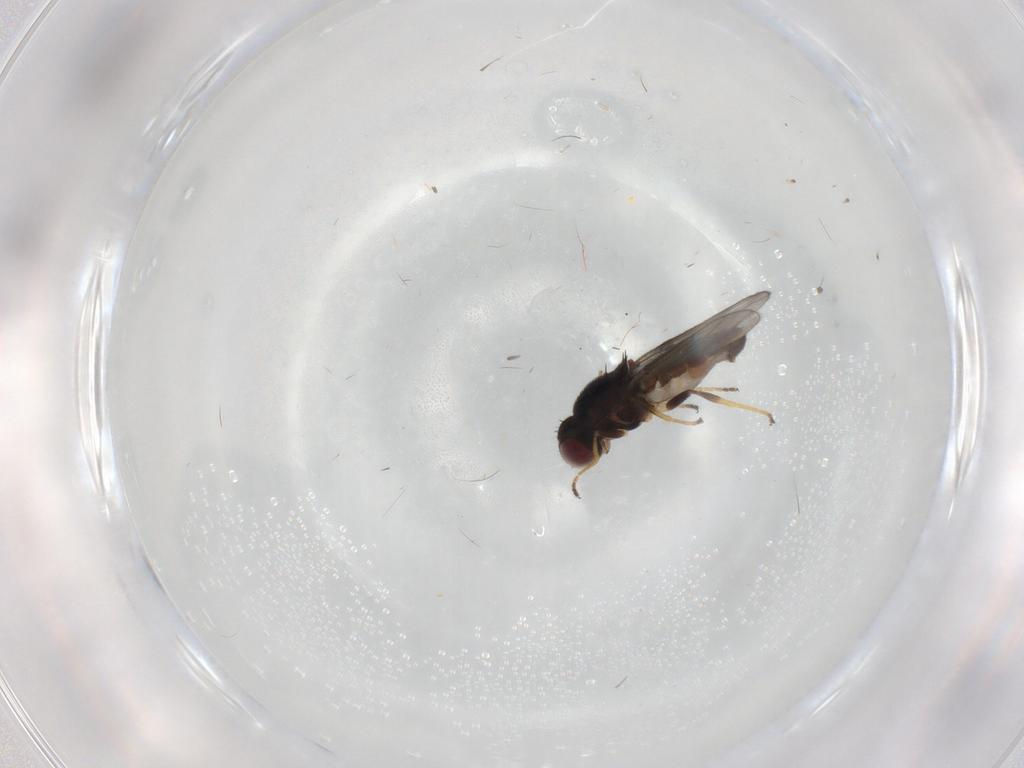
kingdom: Animalia
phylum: Arthropoda
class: Insecta
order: Diptera
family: Chloropidae
